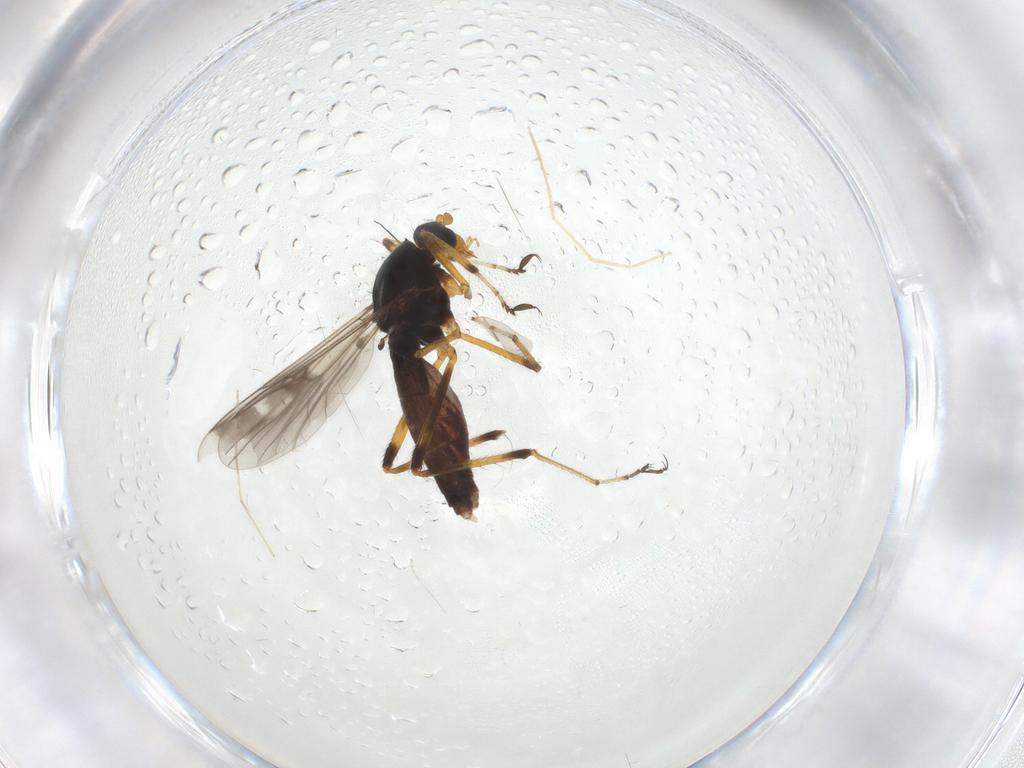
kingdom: Animalia
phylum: Arthropoda
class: Insecta
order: Diptera
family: Ceratopogonidae
